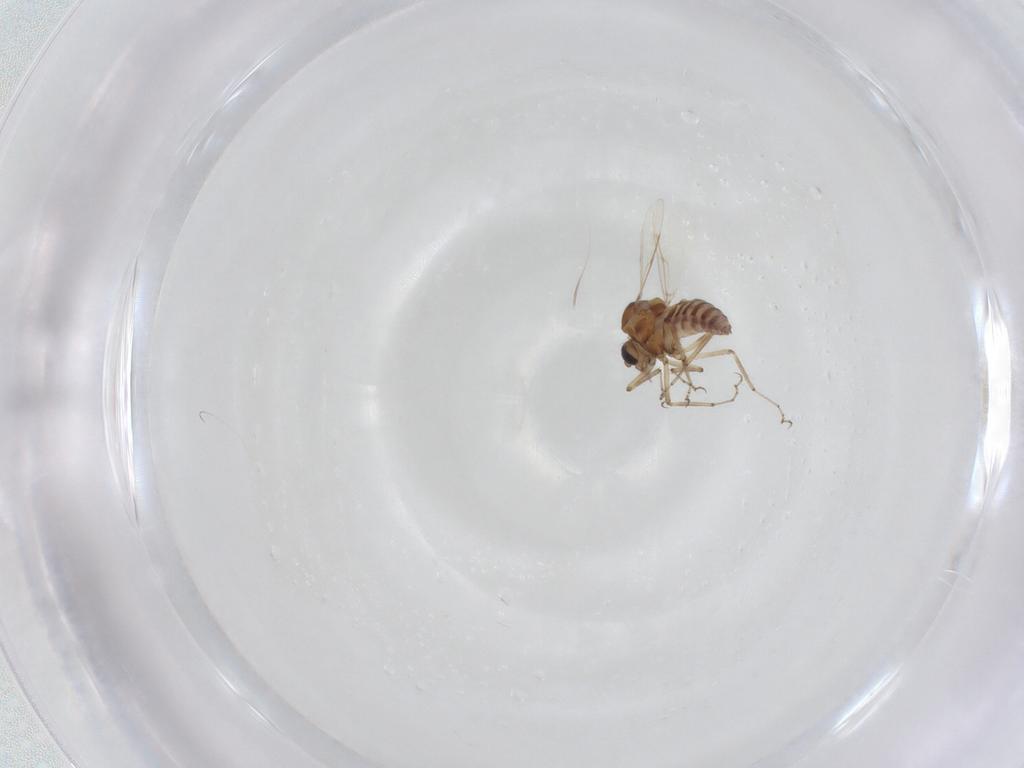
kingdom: Animalia
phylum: Arthropoda
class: Insecta
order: Diptera
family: Ceratopogonidae
